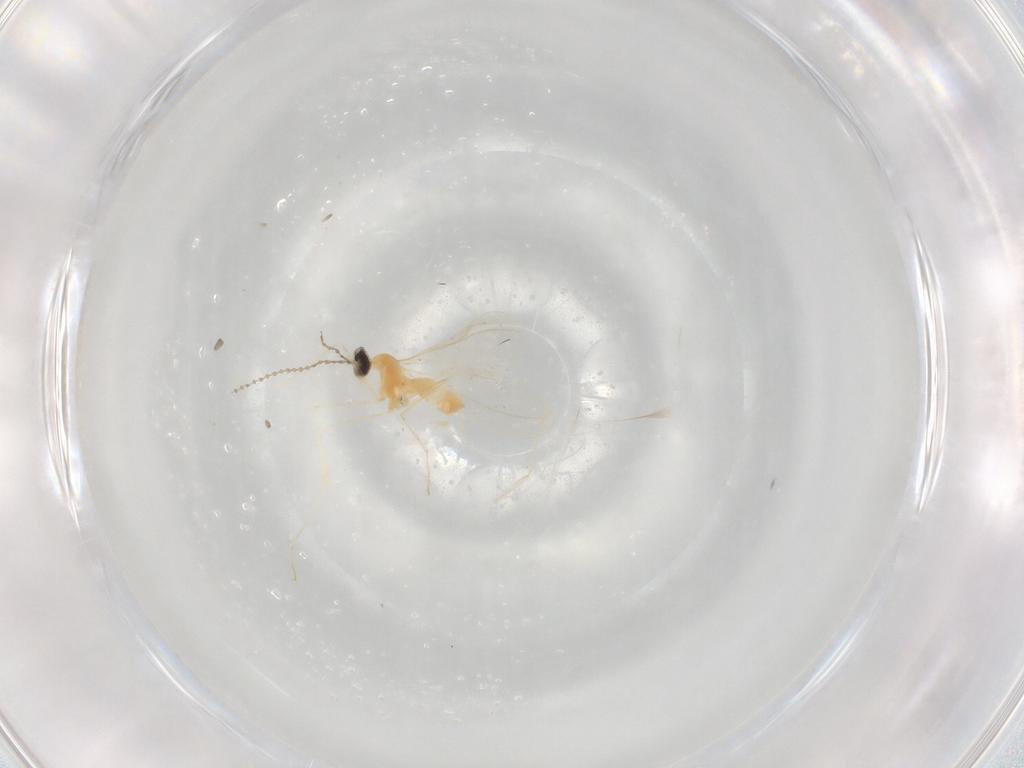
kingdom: Animalia
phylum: Arthropoda
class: Insecta
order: Diptera
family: Cecidomyiidae
